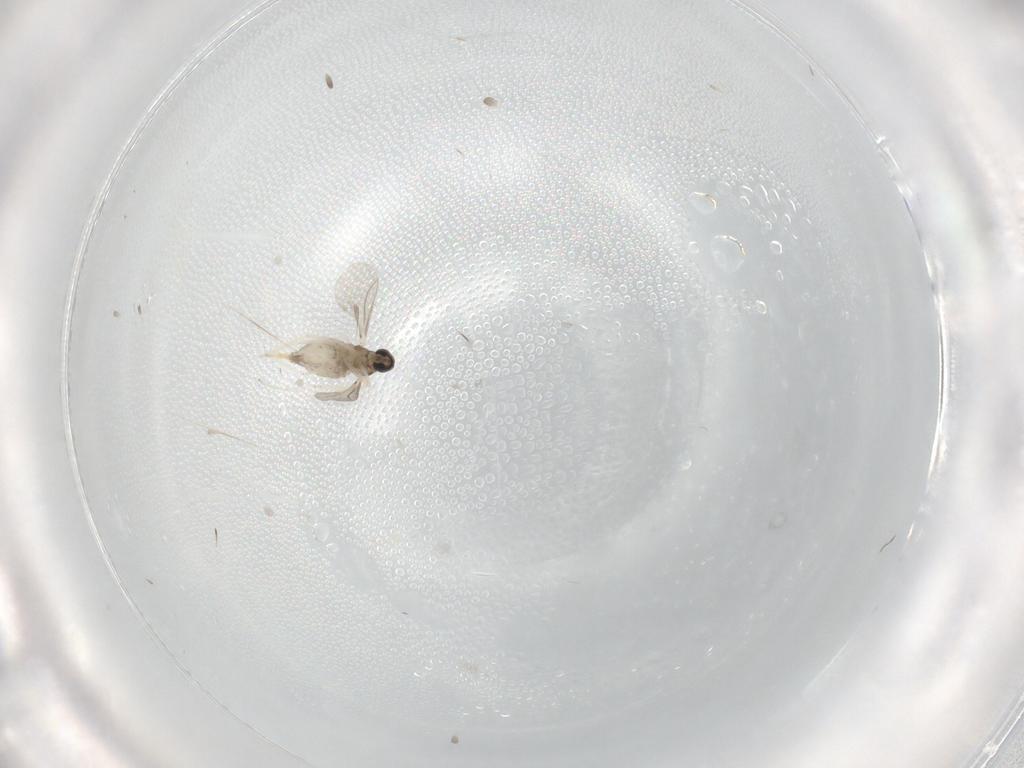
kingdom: Animalia
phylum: Arthropoda
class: Insecta
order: Diptera
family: Cecidomyiidae
